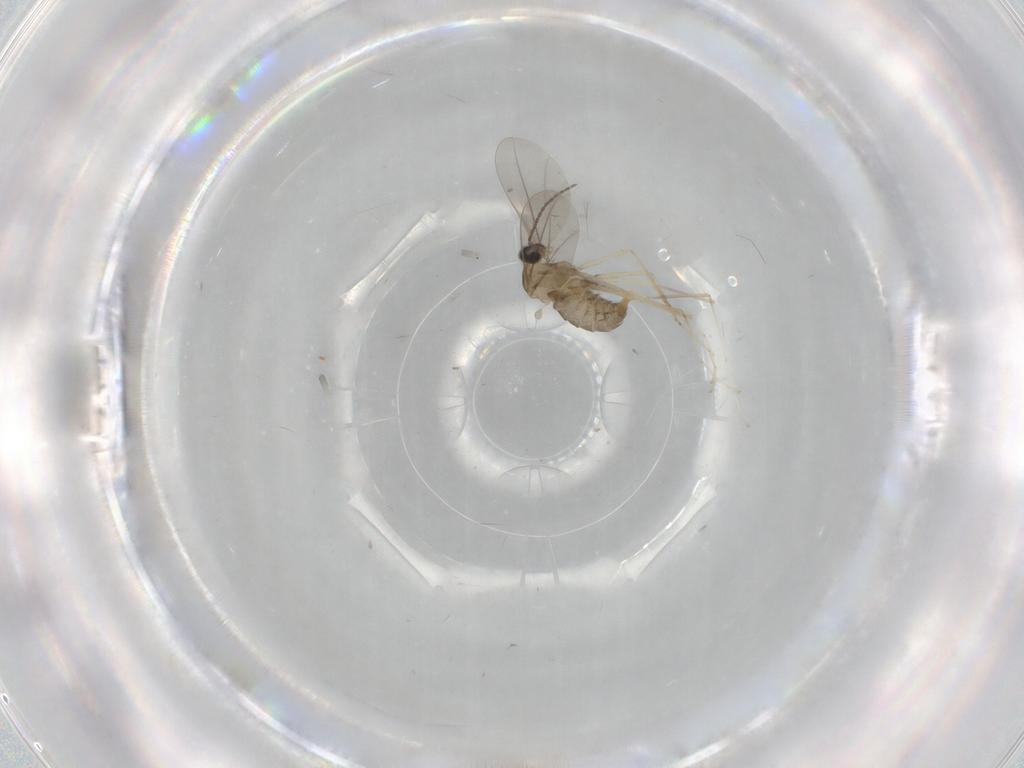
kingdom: Animalia
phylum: Arthropoda
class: Insecta
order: Diptera
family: Cecidomyiidae
